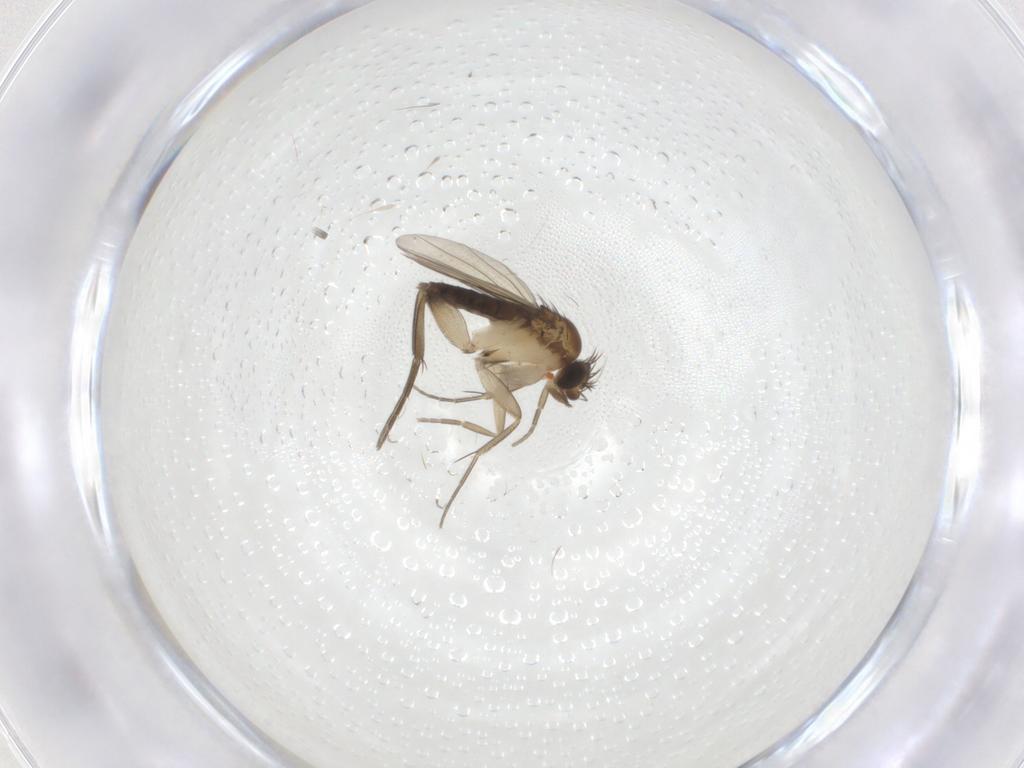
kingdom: Animalia
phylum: Arthropoda
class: Insecta
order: Diptera
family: Phoridae
